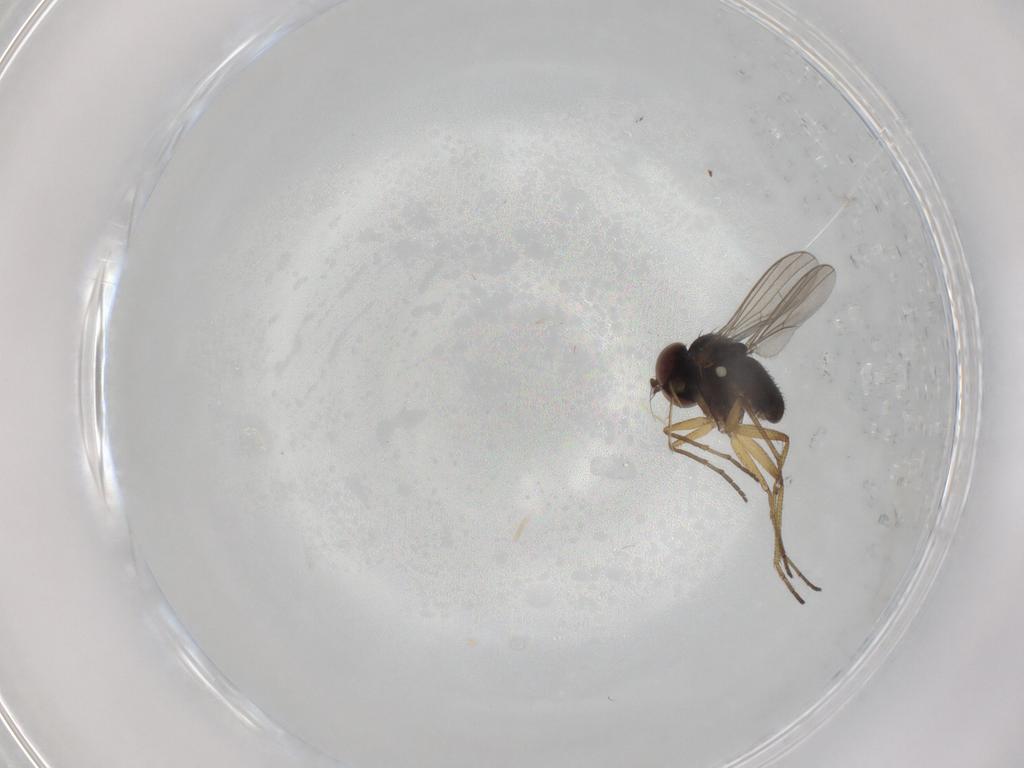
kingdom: Animalia
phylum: Arthropoda
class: Insecta
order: Diptera
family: Dolichopodidae
